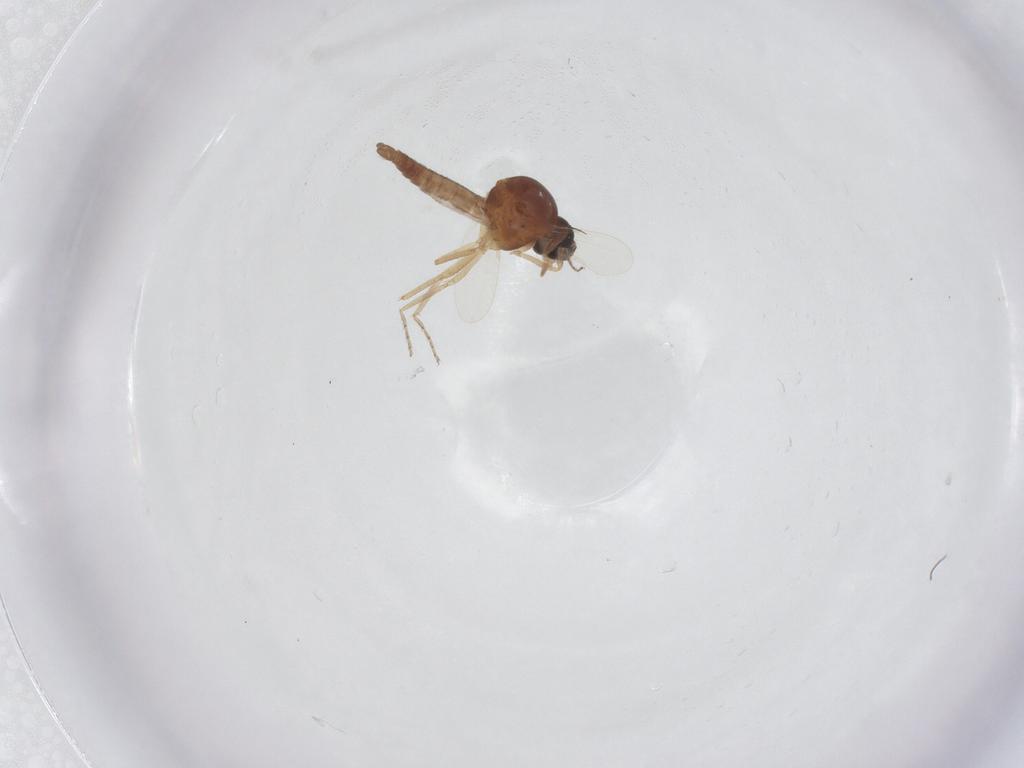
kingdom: Animalia
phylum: Arthropoda
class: Insecta
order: Diptera
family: Ceratopogonidae
